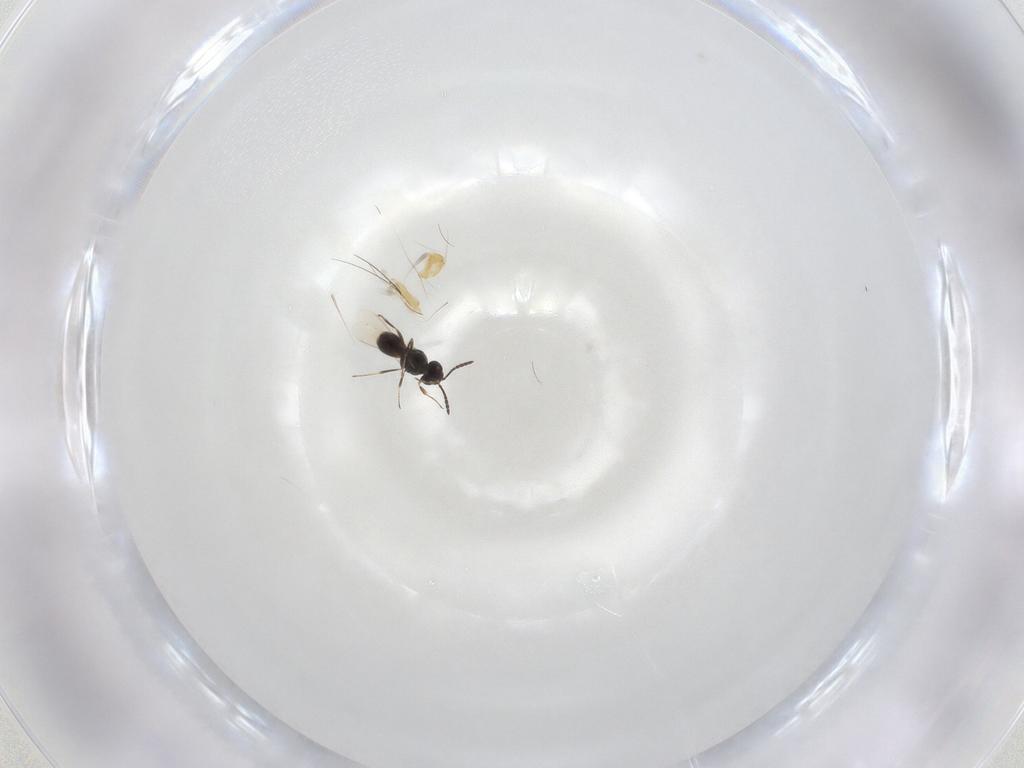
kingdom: Animalia
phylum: Arthropoda
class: Insecta
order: Hymenoptera
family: Scelionidae
